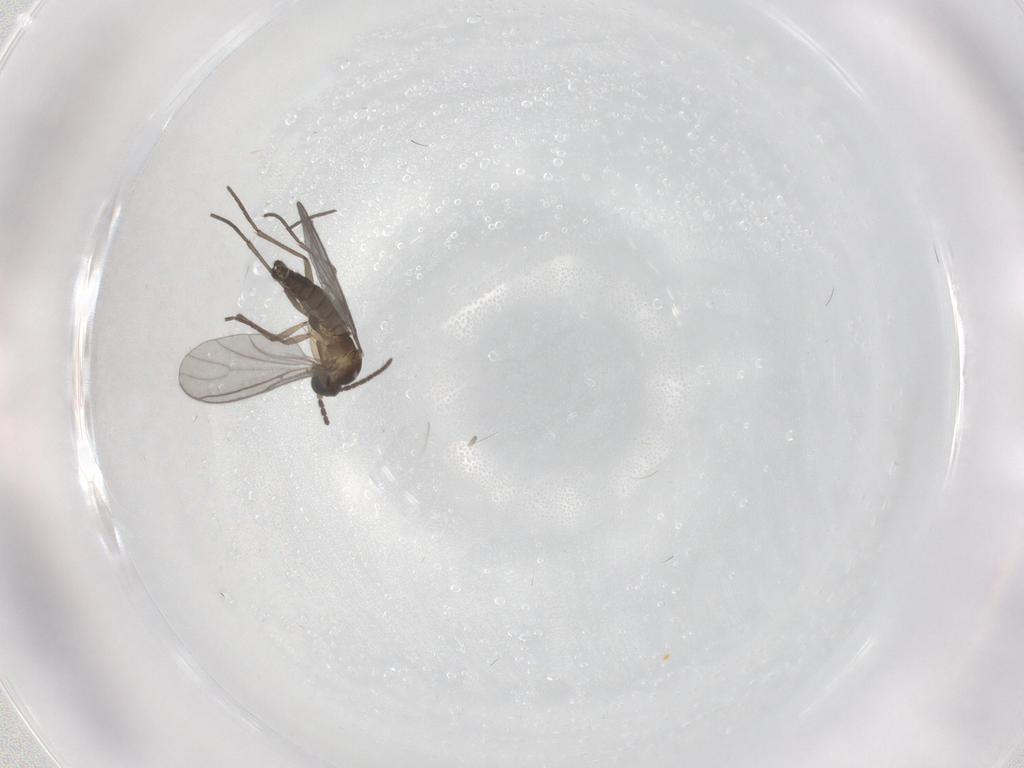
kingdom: Animalia
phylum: Arthropoda
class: Insecta
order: Diptera
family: Sciaridae
